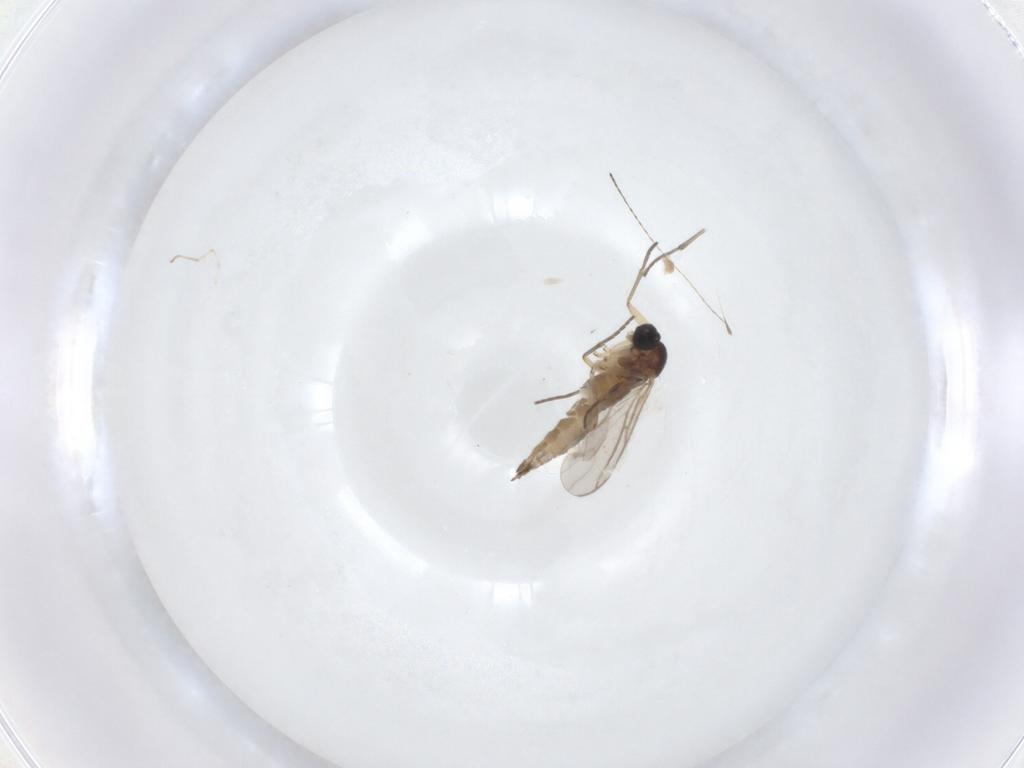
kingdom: Animalia
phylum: Arthropoda
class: Insecta
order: Diptera
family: Sciaridae
